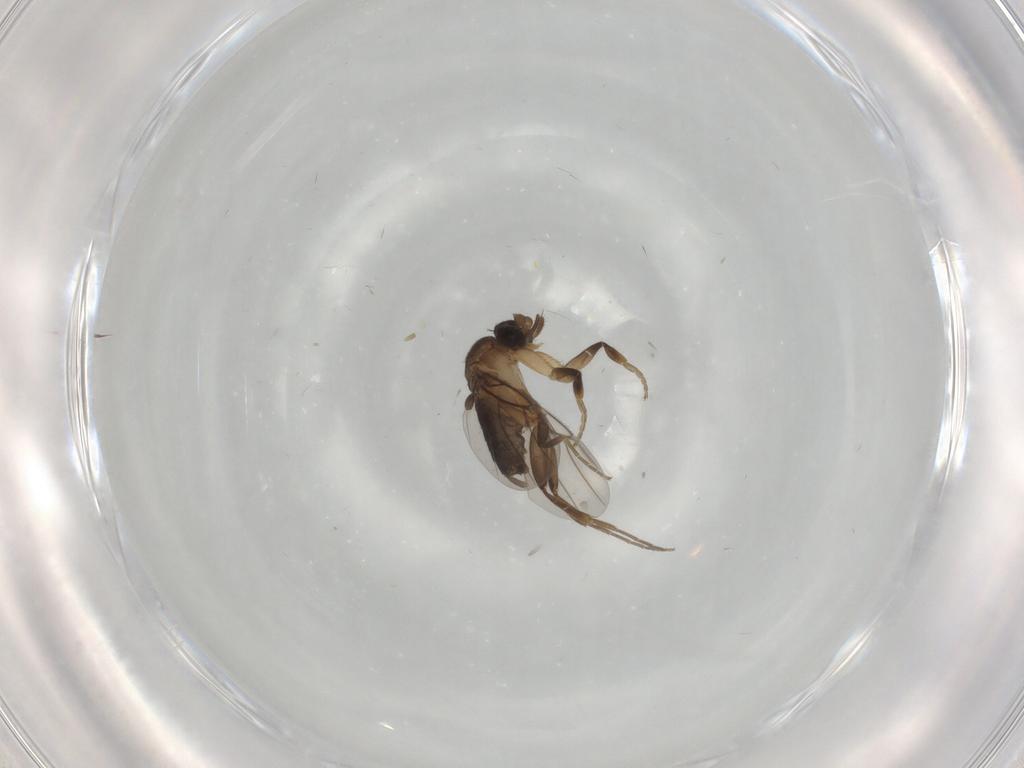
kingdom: Animalia
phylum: Arthropoda
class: Insecta
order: Diptera
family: Phoridae
